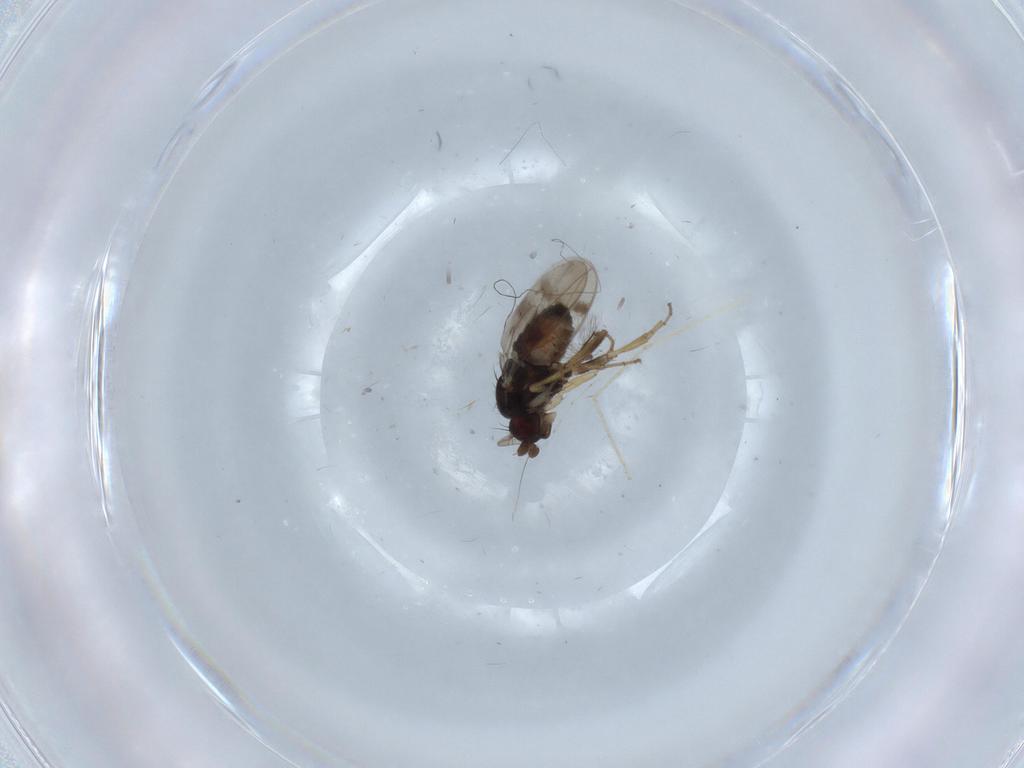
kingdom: Animalia
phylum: Arthropoda
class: Insecta
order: Diptera
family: Sphaeroceridae
